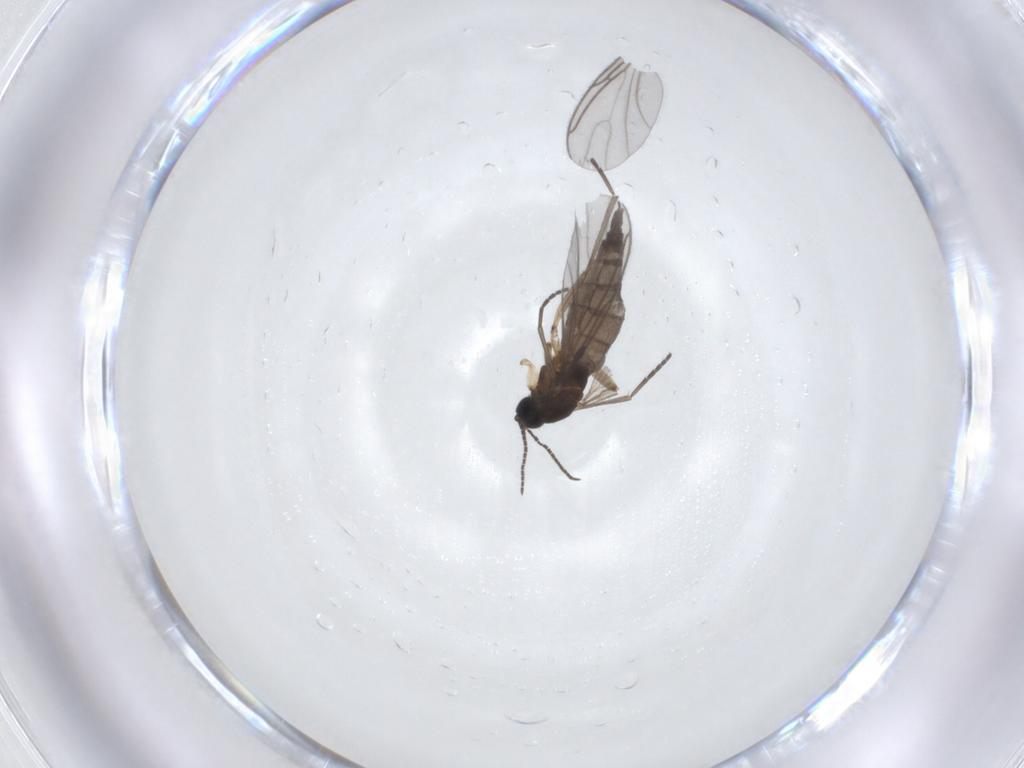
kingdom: Animalia
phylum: Arthropoda
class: Insecta
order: Diptera
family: Sciaridae
